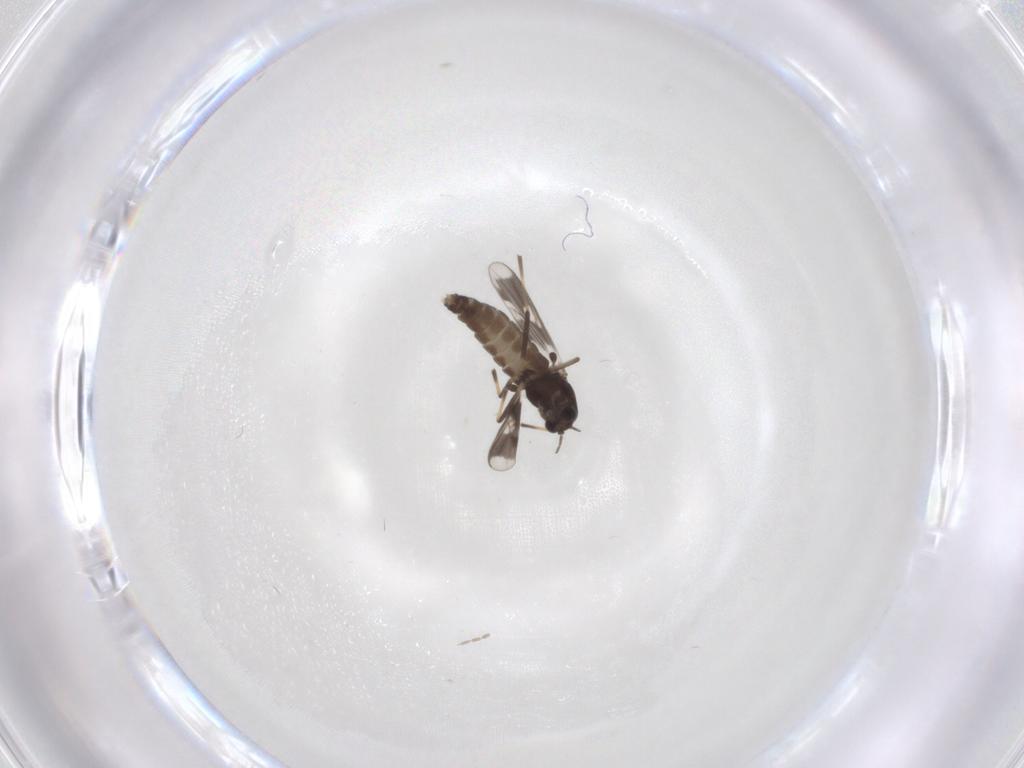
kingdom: Animalia
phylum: Arthropoda
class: Insecta
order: Diptera
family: Chironomidae
